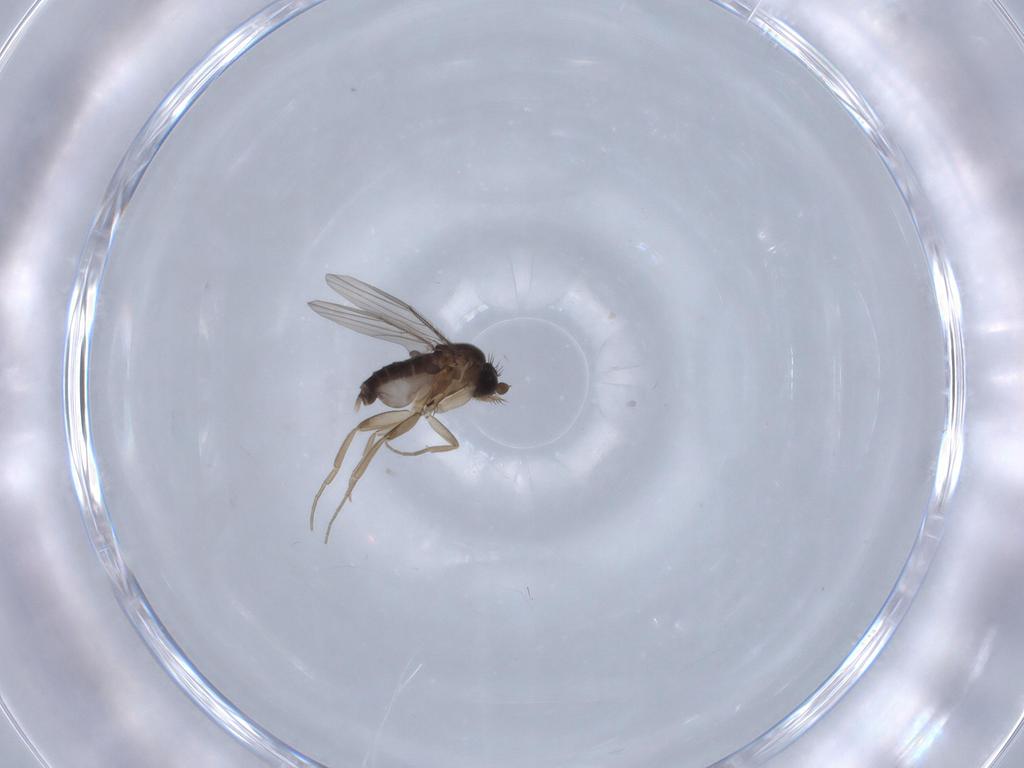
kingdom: Animalia
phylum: Arthropoda
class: Insecta
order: Diptera
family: Phoridae
